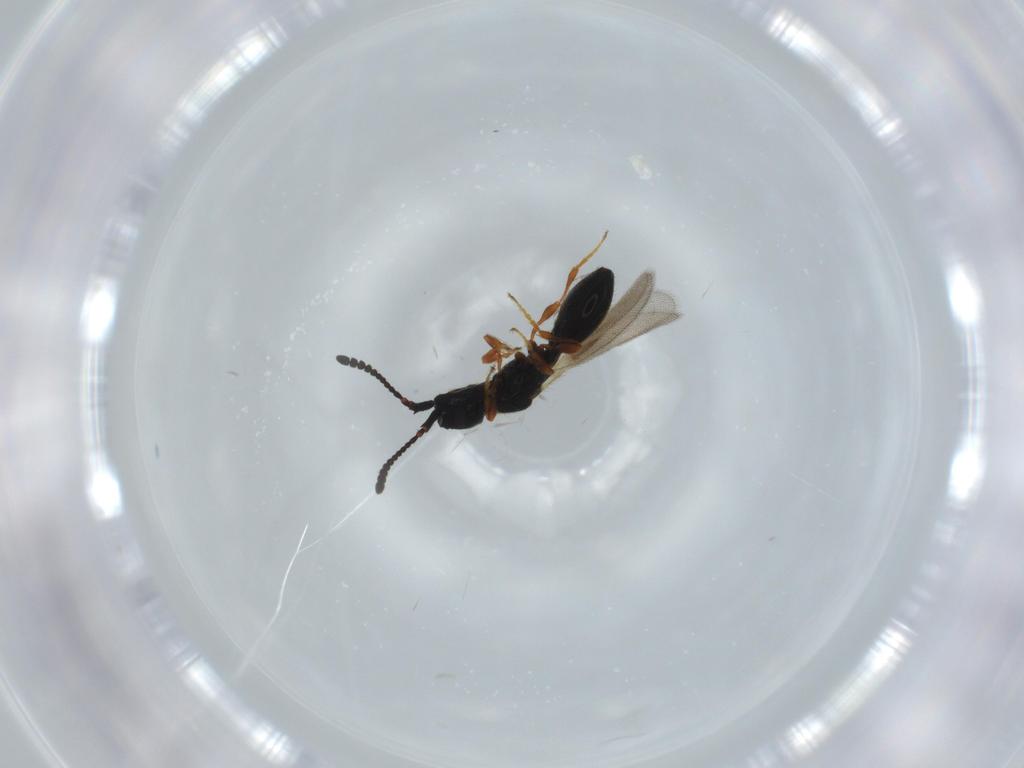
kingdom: Animalia
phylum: Arthropoda
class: Insecta
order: Hymenoptera
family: Diapriidae
